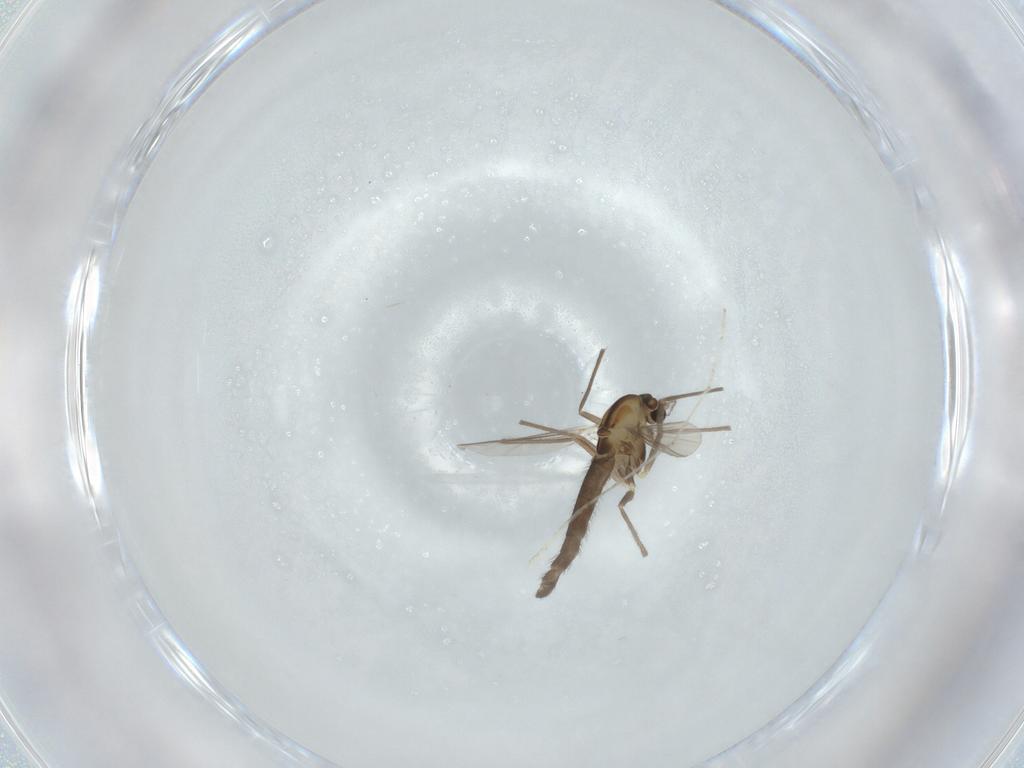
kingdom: Animalia
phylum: Arthropoda
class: Insecta
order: Diptera
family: Chironomidae
